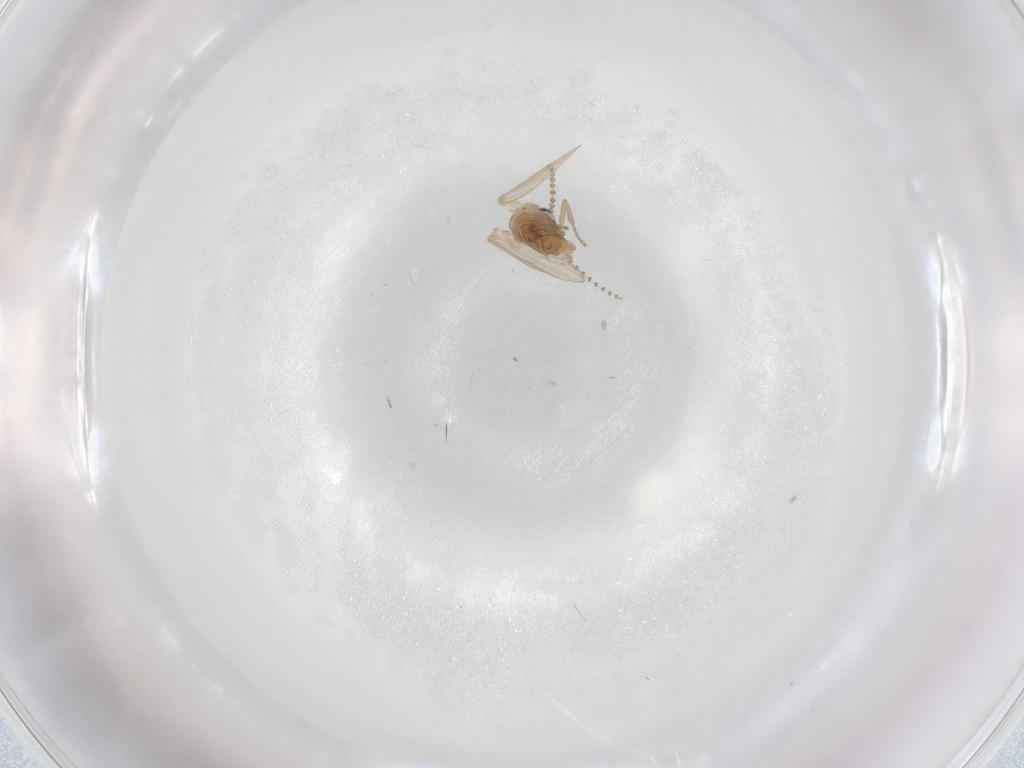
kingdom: Animalia
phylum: Arthropoda
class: Insecta
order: Diptera
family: Psychodidae
